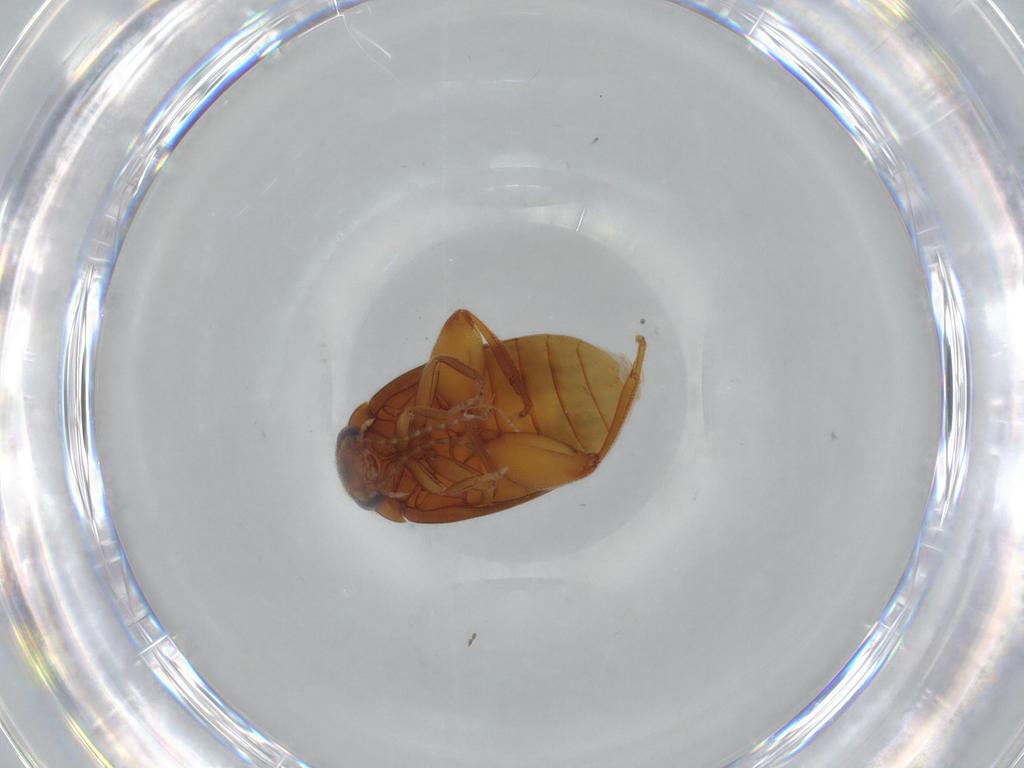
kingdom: Animalia
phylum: Arthropoda
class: Insecta
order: Coleoptera
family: Scirtidae
